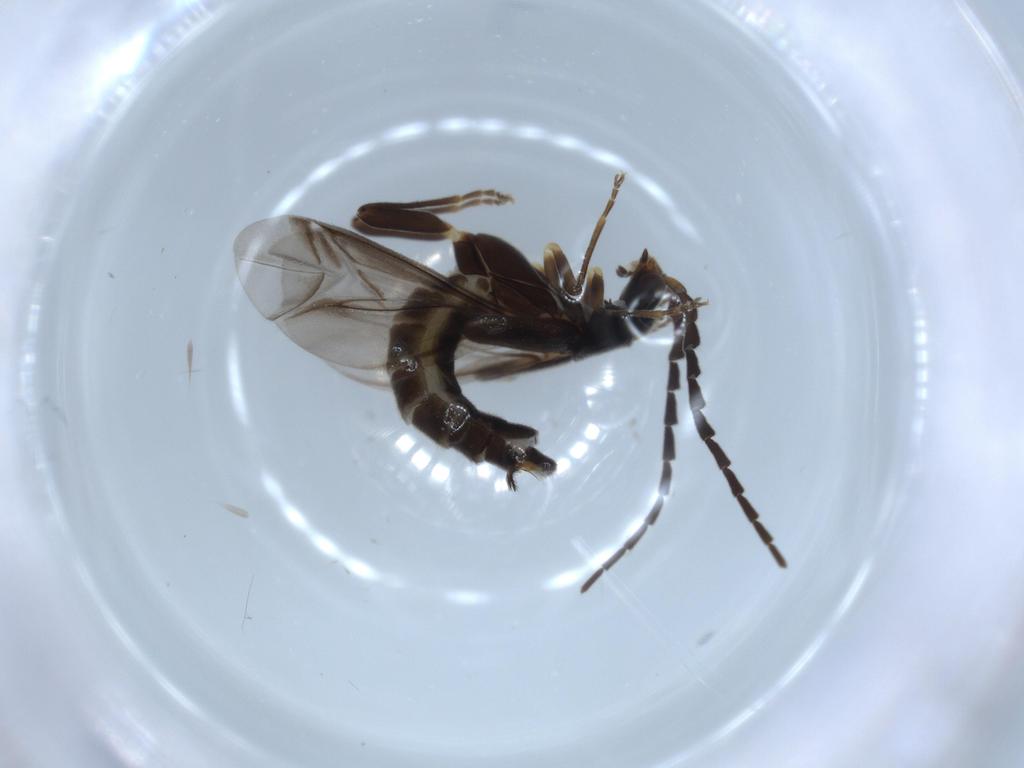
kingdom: Animalia
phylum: Arthropoda
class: Insecta
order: Coleoptera
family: Cantharidae
